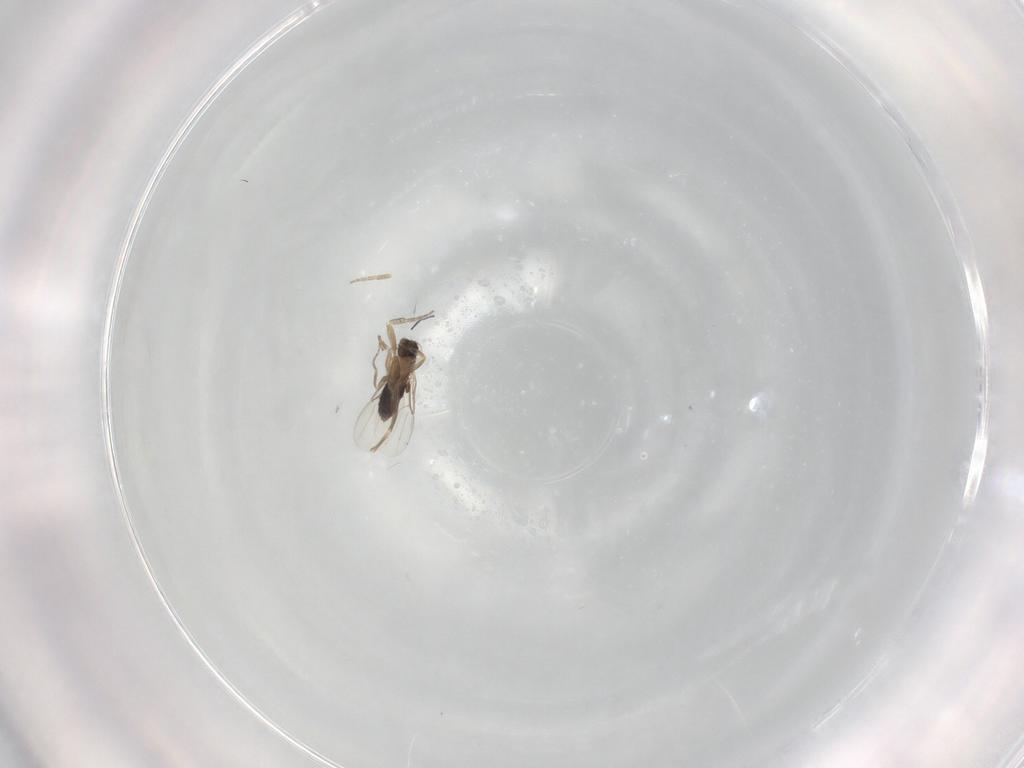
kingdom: Animalia
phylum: Arthropoda
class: Insecta
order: Diptera
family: Phoridae
